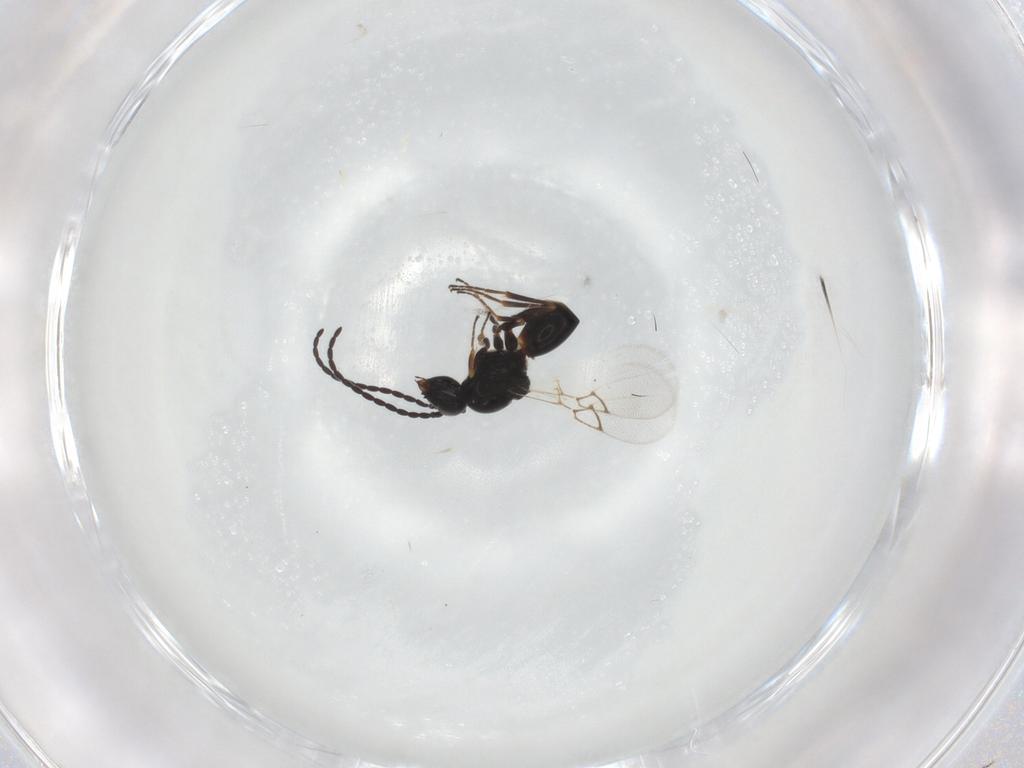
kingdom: Animalia
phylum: Arthropoda
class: Insecta
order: Hymenoptera
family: Figitidae
